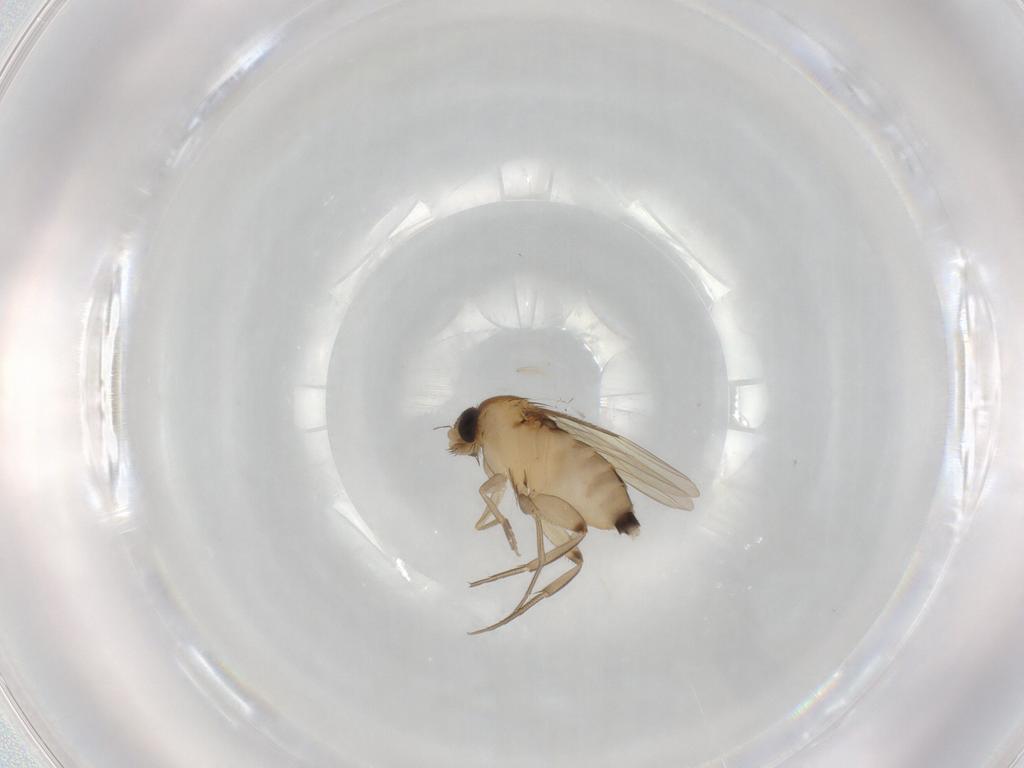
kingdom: Animalia
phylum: Arthropoda
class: Insecta
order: Diptera
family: Phoridae
